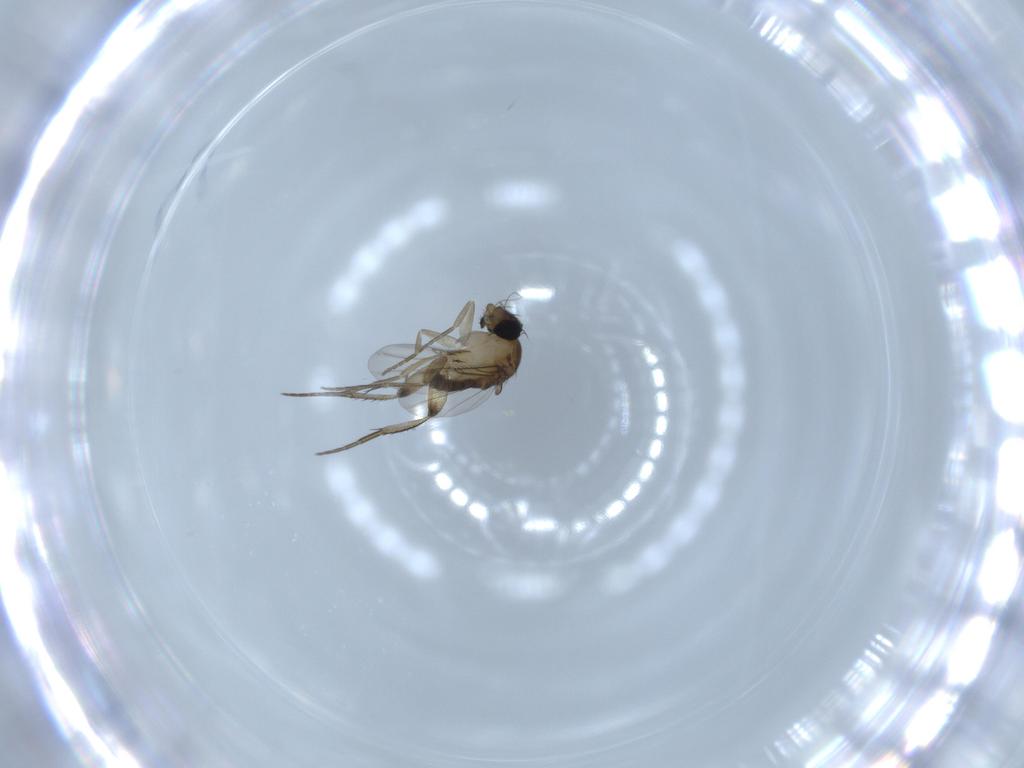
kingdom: Animalia
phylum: Arthropoda
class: Insecta
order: Diptera
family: Phoridae
